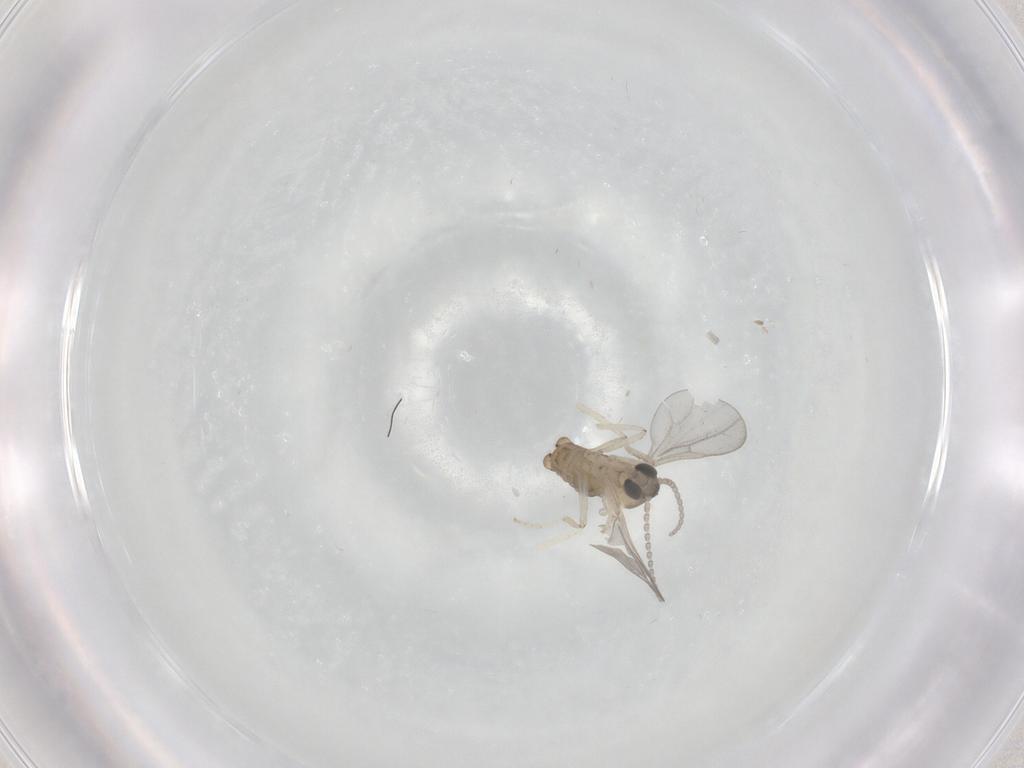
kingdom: Animalia
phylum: Arthropoda
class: Insecta
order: Diptera
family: Cecidomyiidae
